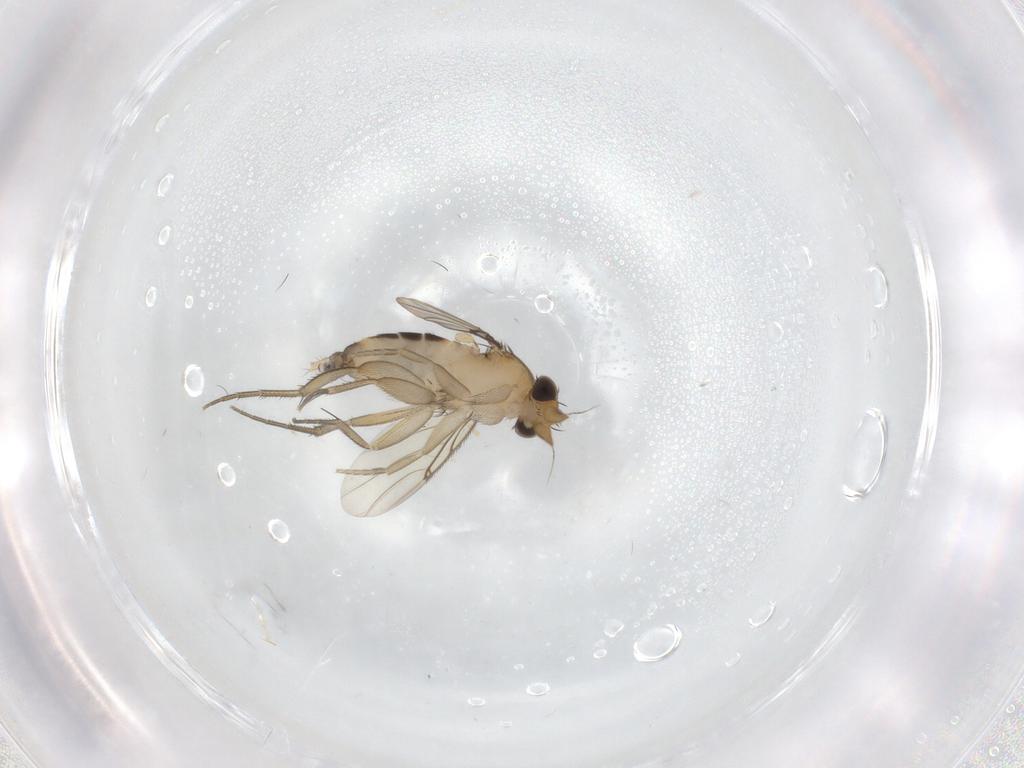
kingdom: Animalia
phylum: Arthropoda
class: Insecta
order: Diptera
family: Phoridae
